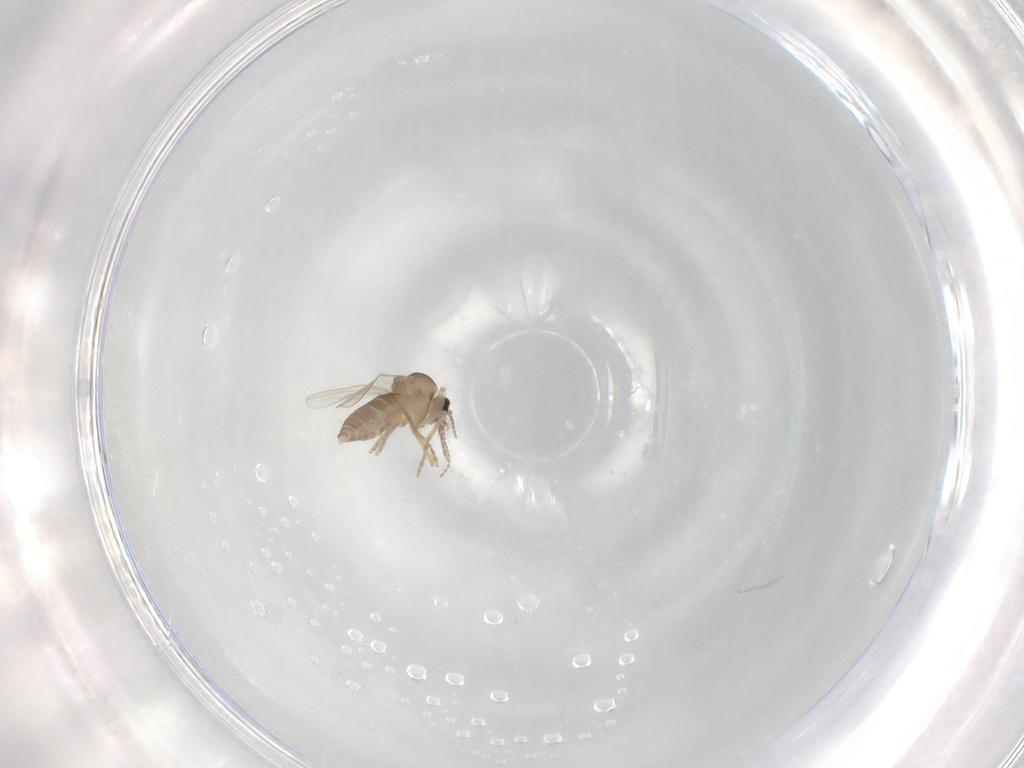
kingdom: Animalia
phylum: Arthropoda
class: Insecta
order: Diptera
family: Ceratopogonidae
